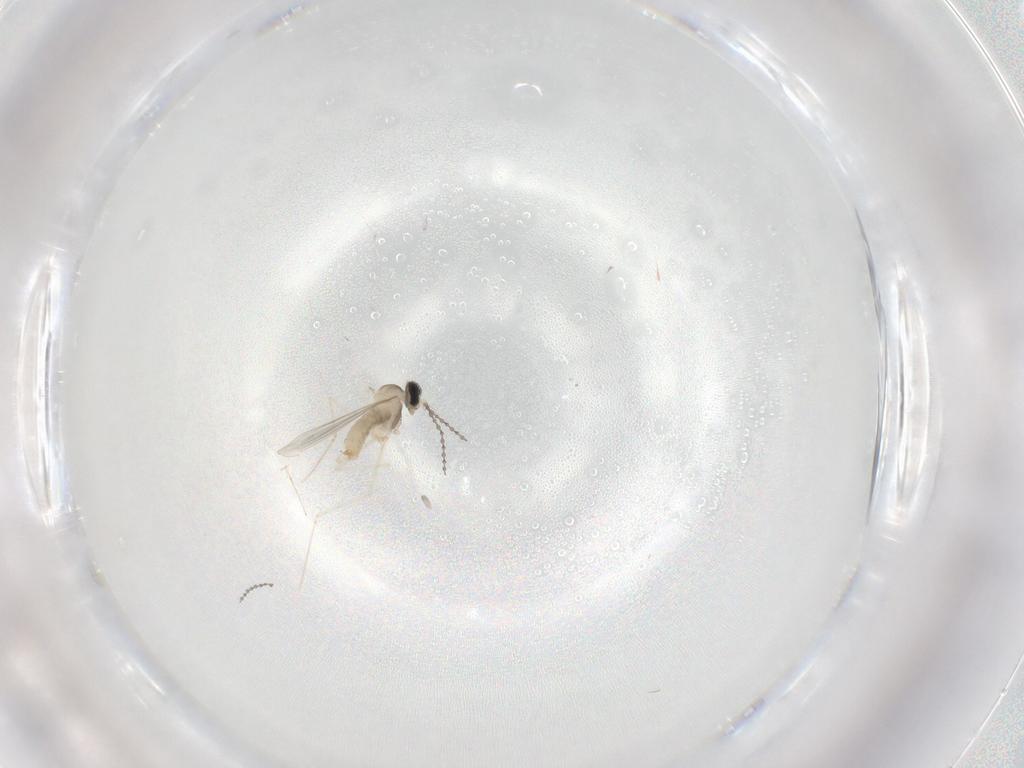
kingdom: Animalia
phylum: Arthropoda
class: Insecta
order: Diptera
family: Cecidomyiidae
